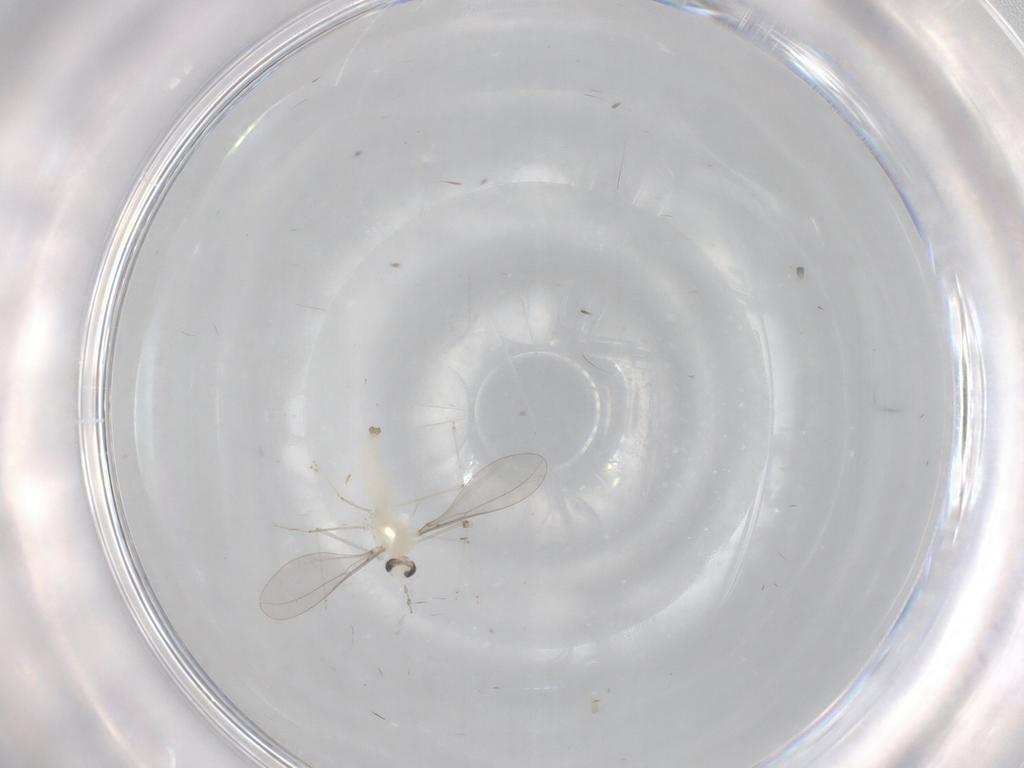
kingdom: Animalia
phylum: Arthropoda
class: Insecta
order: Diptera
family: Cecidomyiidae
